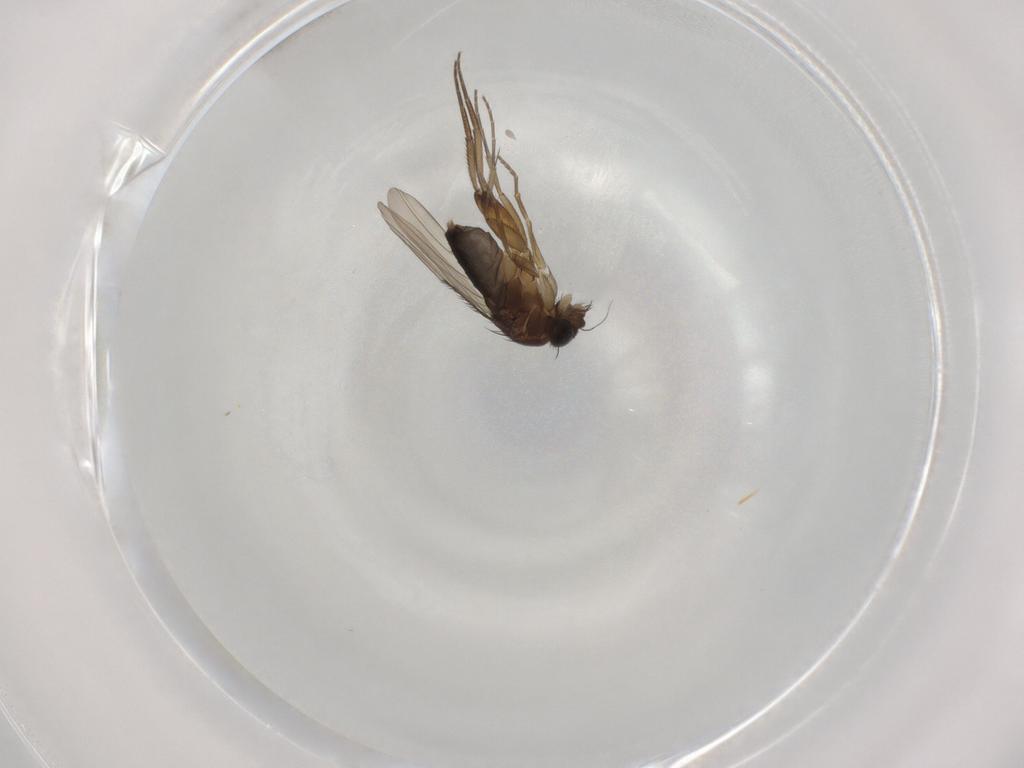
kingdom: Animalia
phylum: Arthropoda
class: Insecta
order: Diptera
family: Phoridae
